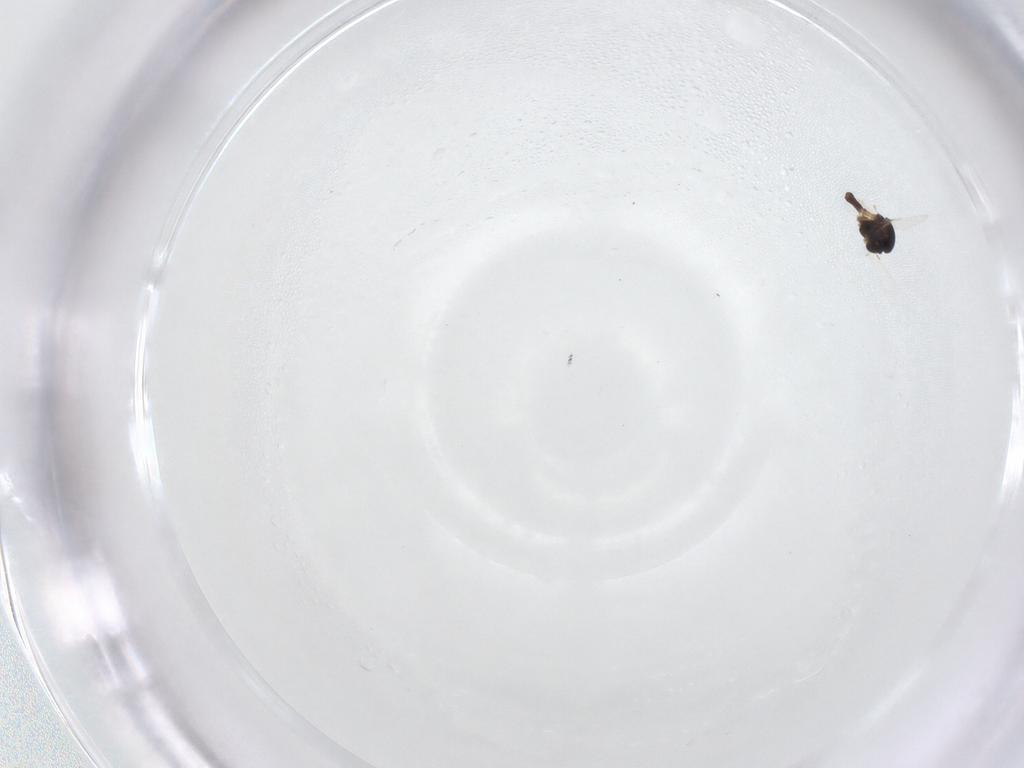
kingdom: Animalia
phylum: Arthropoda
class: Insecta
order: Diptera
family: Chironomidae
